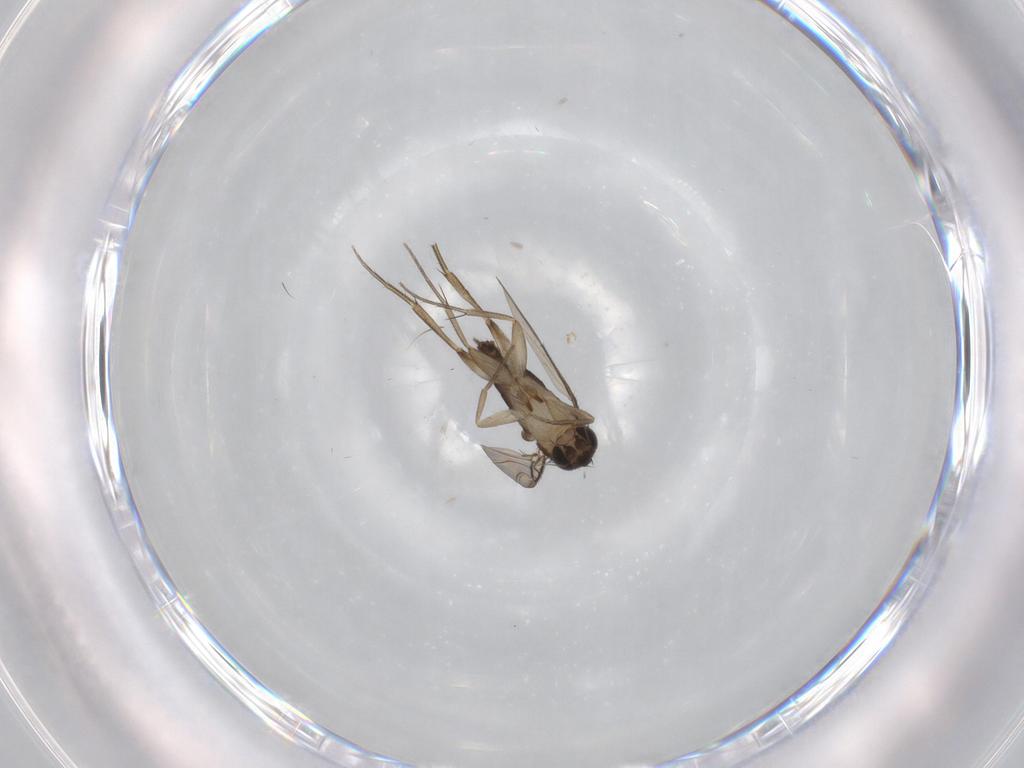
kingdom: Animalia
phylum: Arthropoda
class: Insecta
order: Diptera
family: Phoridae
